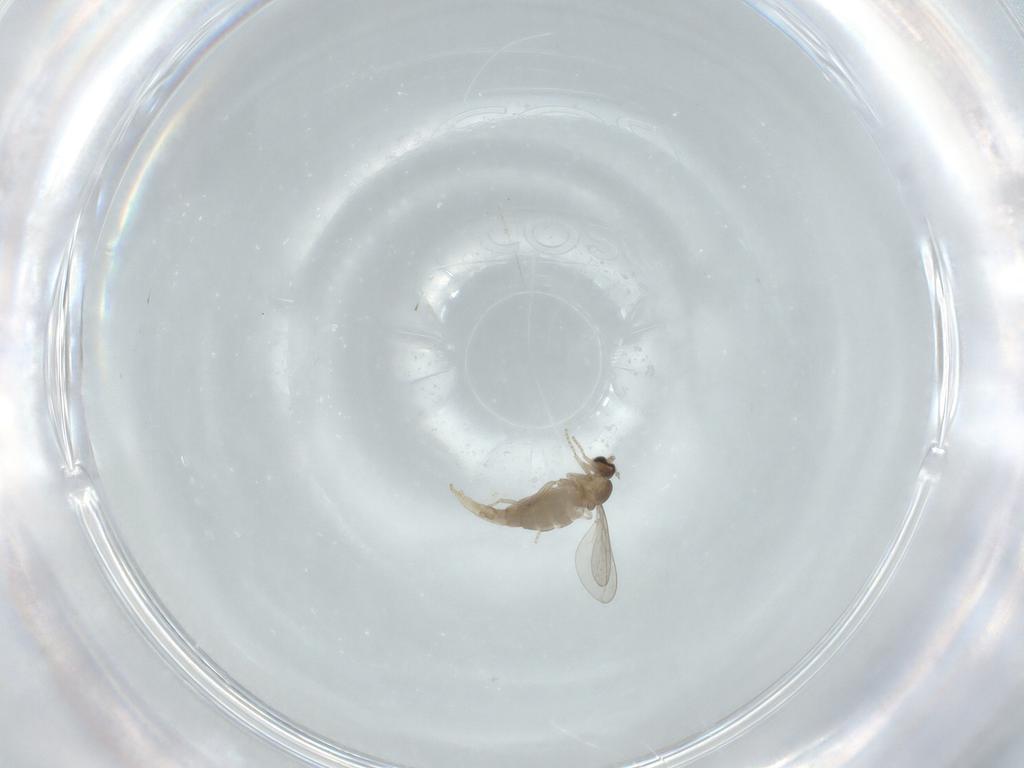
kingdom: Animalia
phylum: Arthropoda
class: Insecta
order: Diptera
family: Cecidomyiidae
